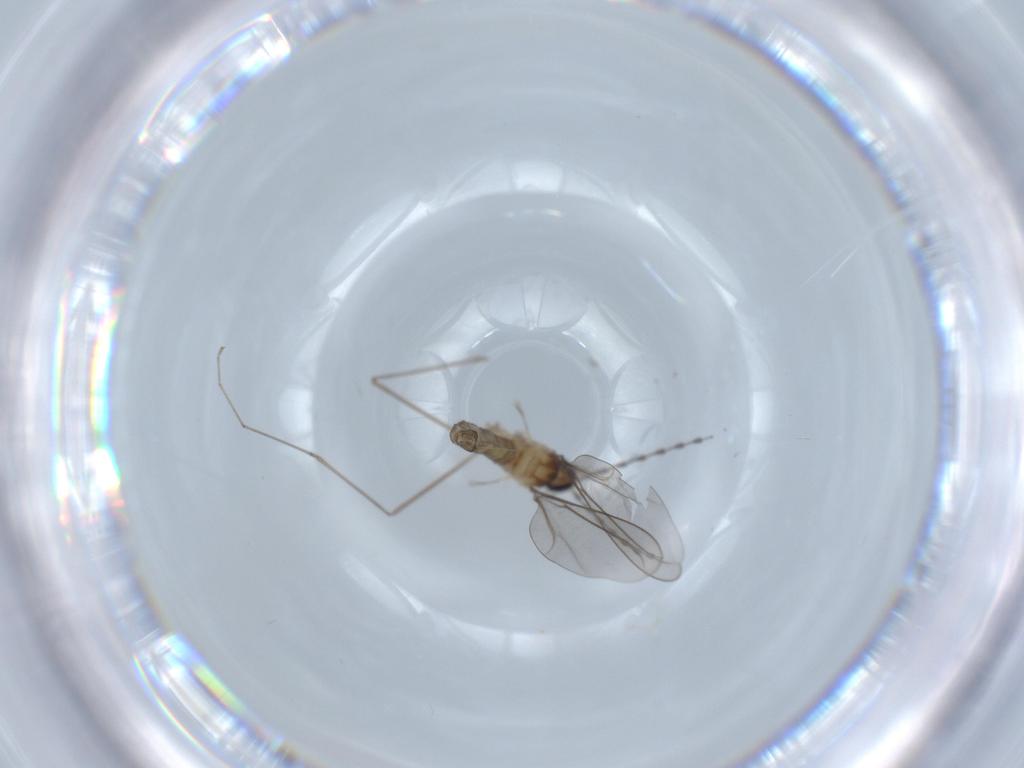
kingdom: Animalia
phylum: Arthropoda
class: Insecta
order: Diptera
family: Cecidomyiidae
